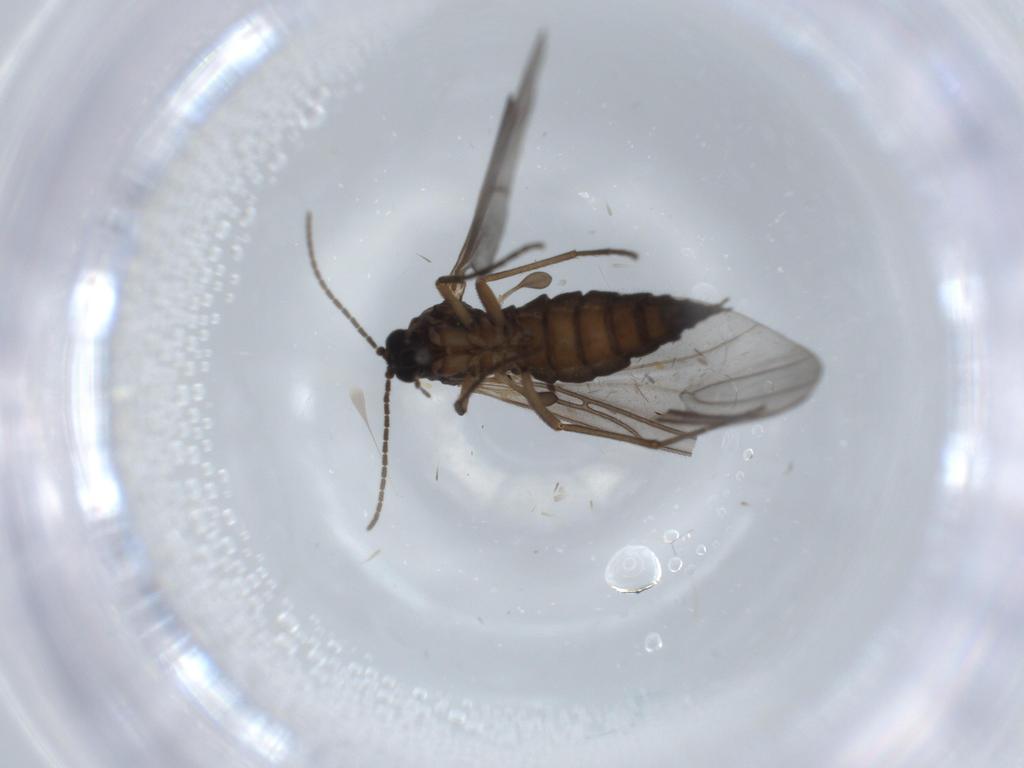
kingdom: Animalia
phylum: Arthropoda
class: Insecta
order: Diptera
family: Sciaridae
